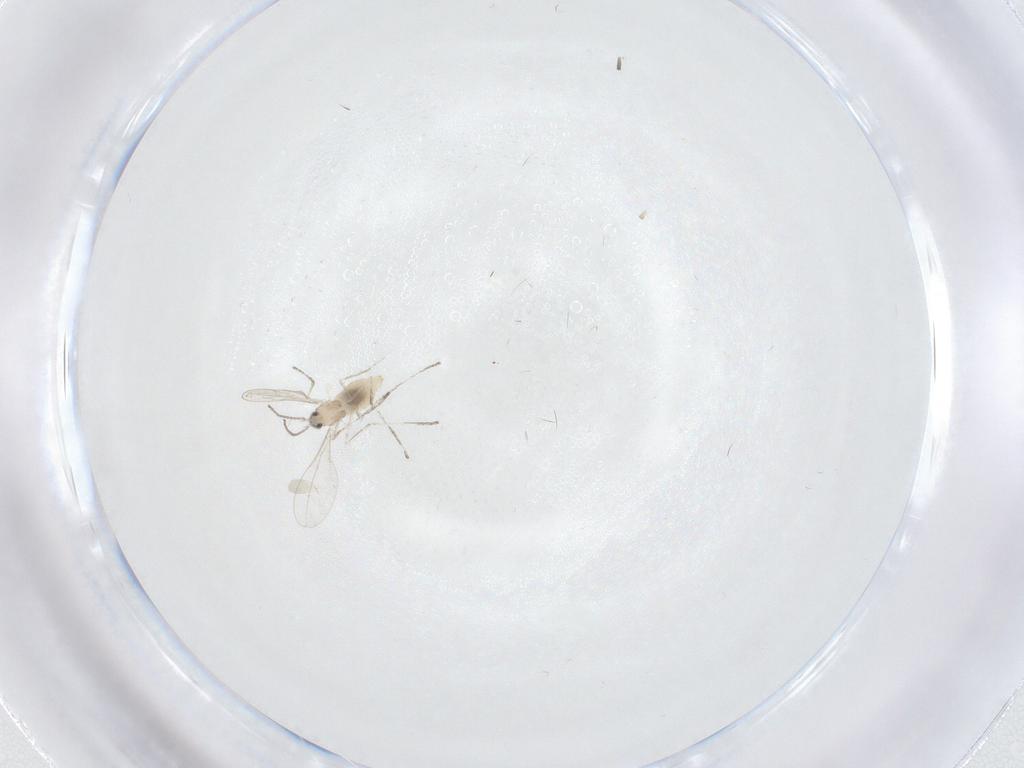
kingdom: Animalia
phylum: Arthropoda
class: Insecta
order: Diptera
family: Cecidomyiidae
